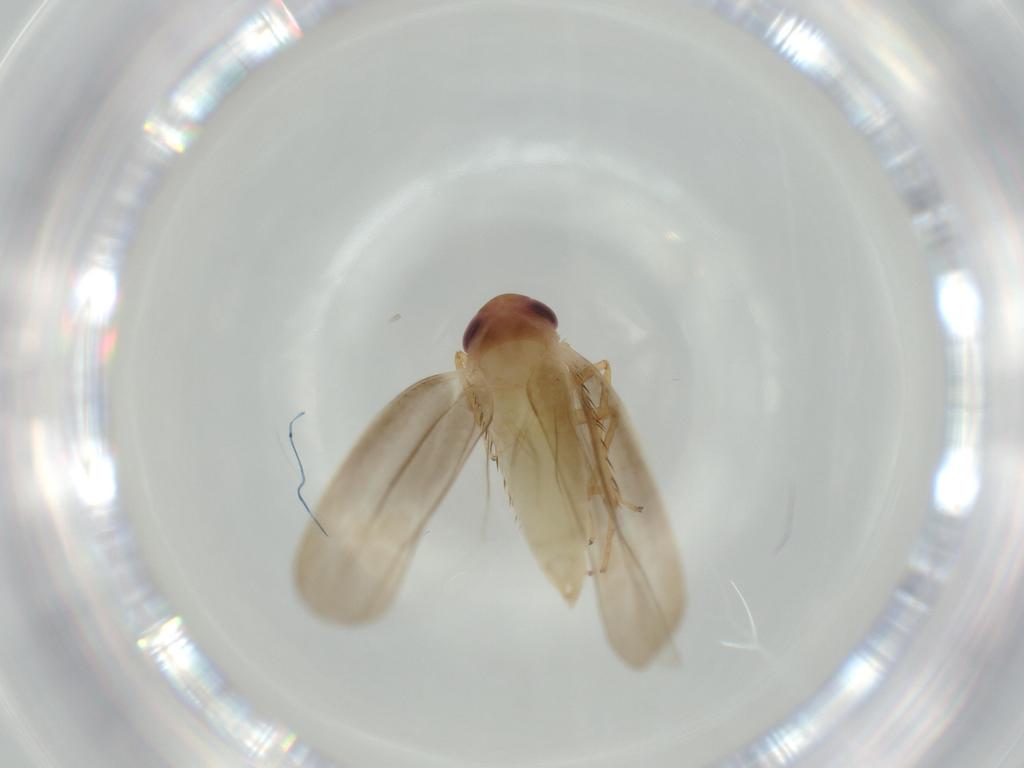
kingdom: Animalia
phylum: Arthropoda
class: Insecta
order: Hemiptera
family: Cicadellidae
